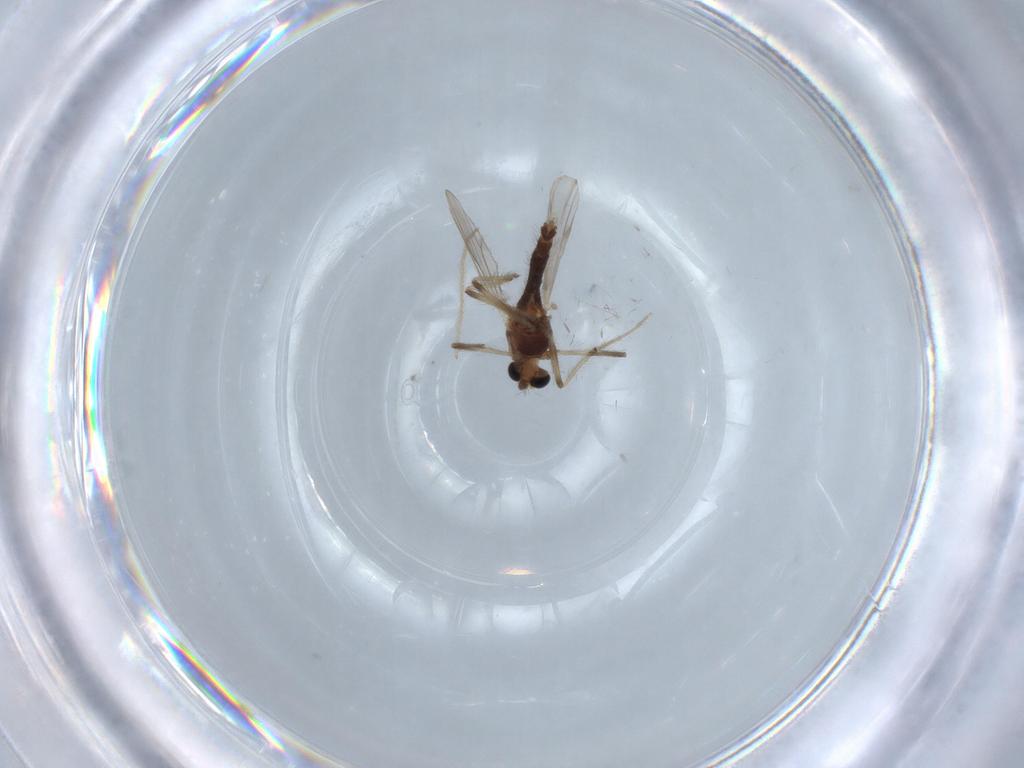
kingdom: Animalia
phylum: Arthropoda
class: Insecta
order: Diptera
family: Chironomidae
